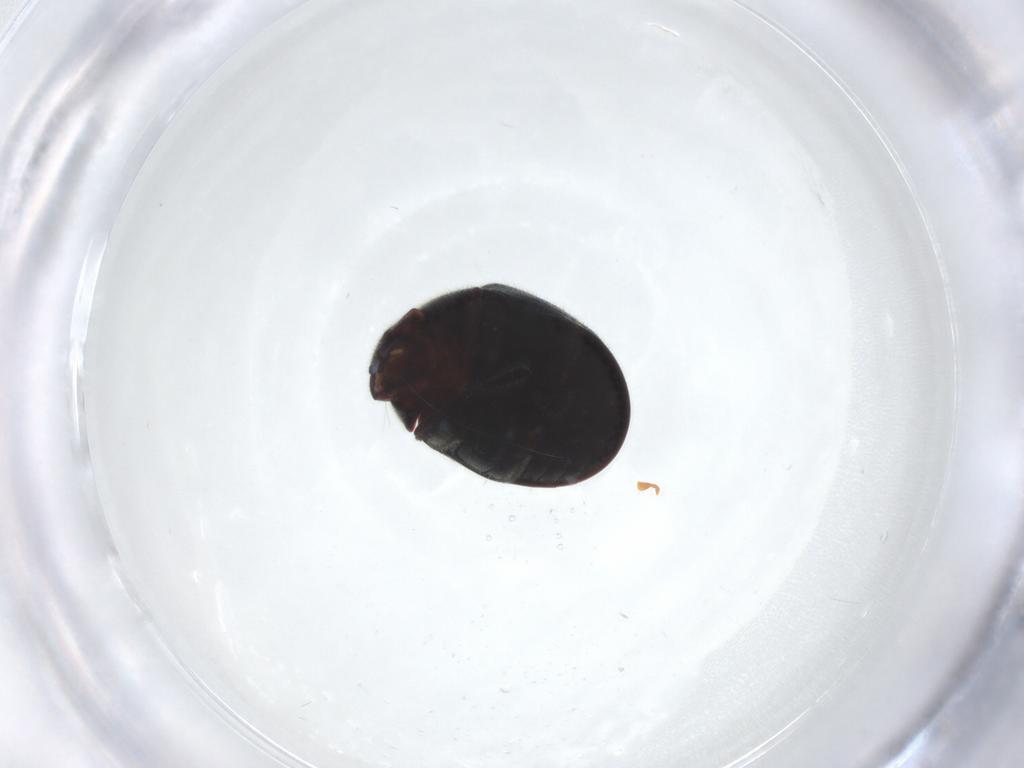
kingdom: Animalia
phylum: Arthropoda
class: Insecta
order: Coleoptera
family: Ptinidae
